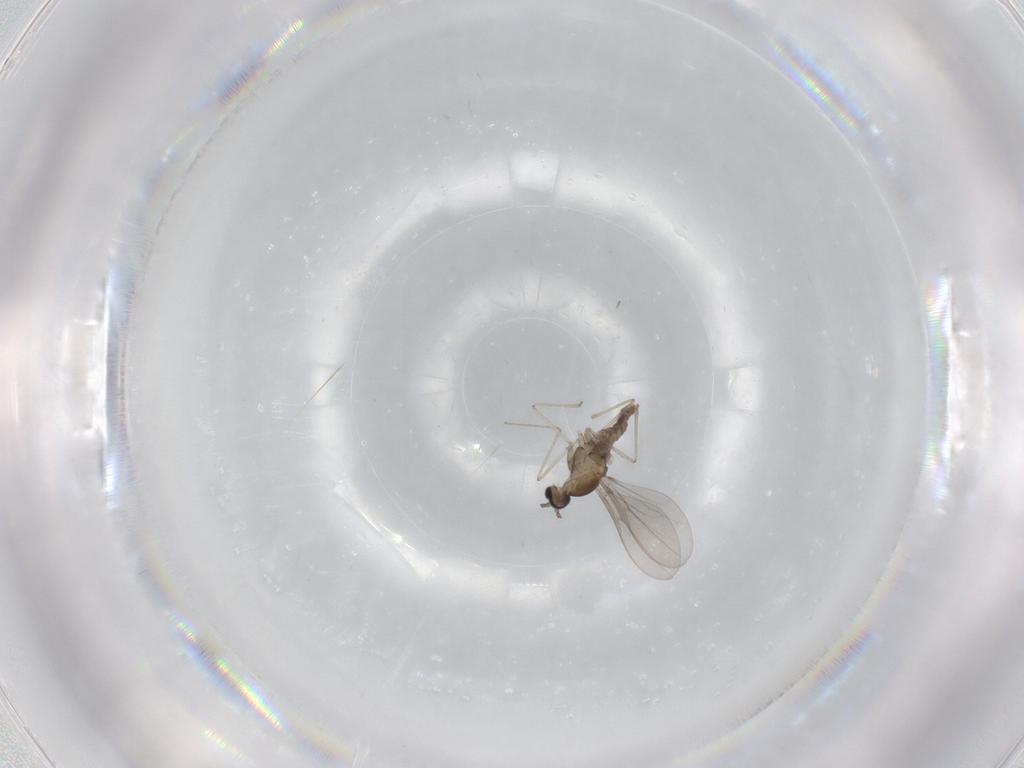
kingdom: Animalia
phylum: Arthropoda
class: Insecta
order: Diptera
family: Cecidomyiidae
